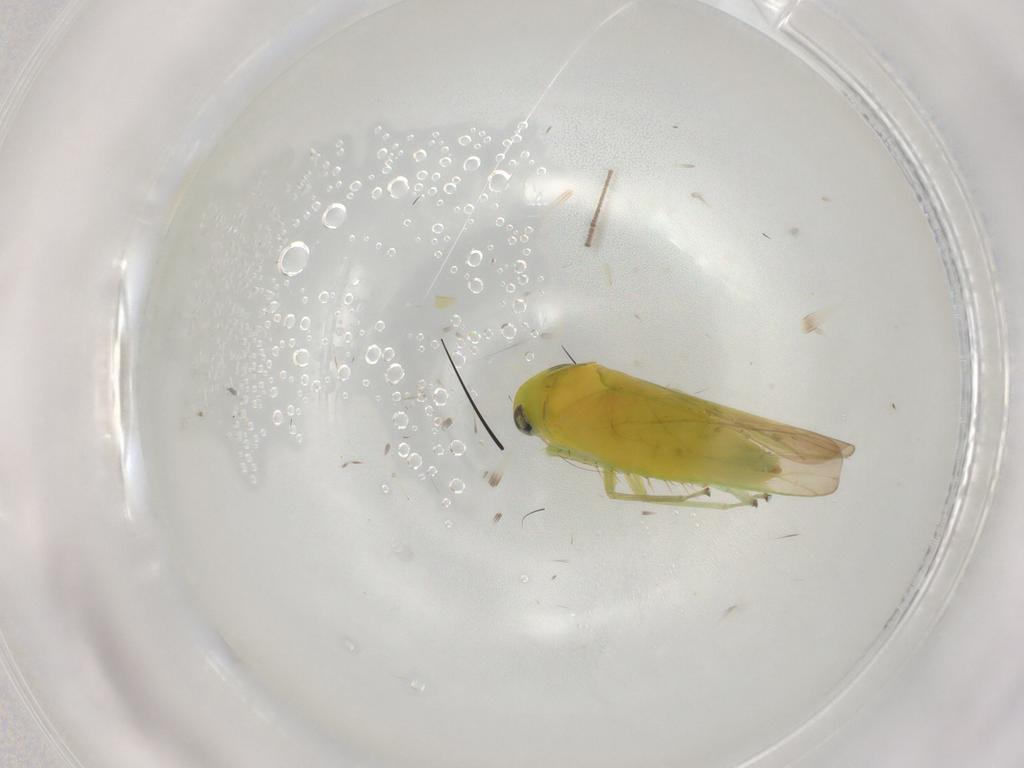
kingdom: Animalia
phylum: Arthropoda
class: Insecta
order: Hemiptera
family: Cicadellidae
